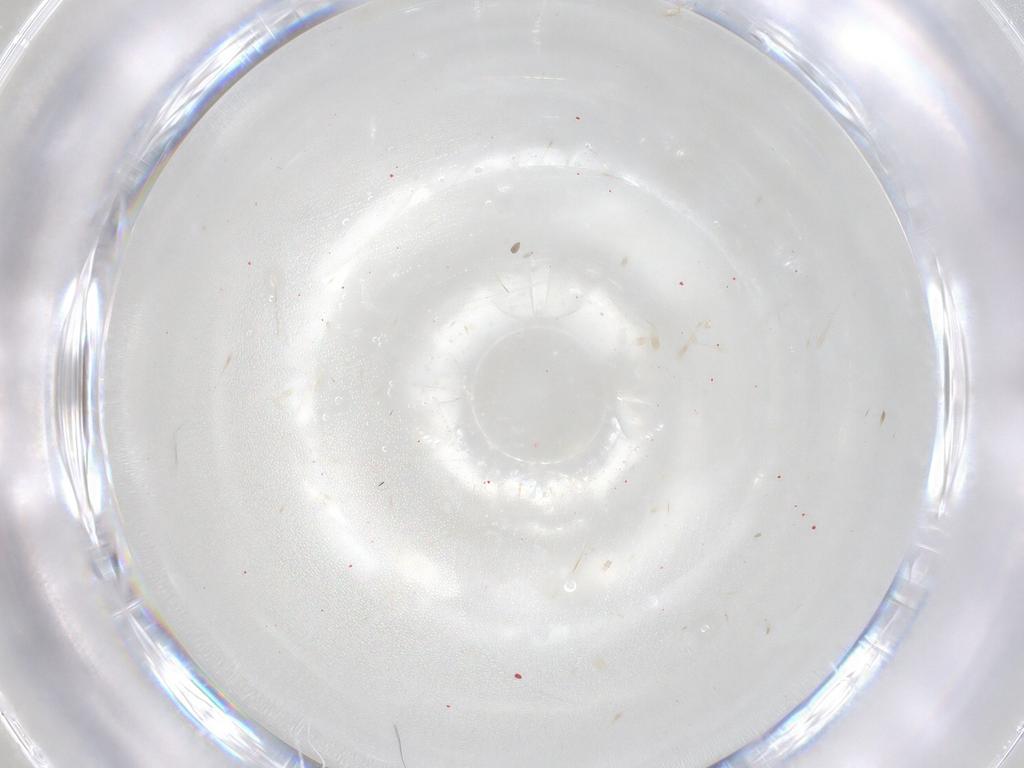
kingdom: Animalia
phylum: Arthropoda
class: Collembola
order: Poduromorpha
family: Hypogastruridae
